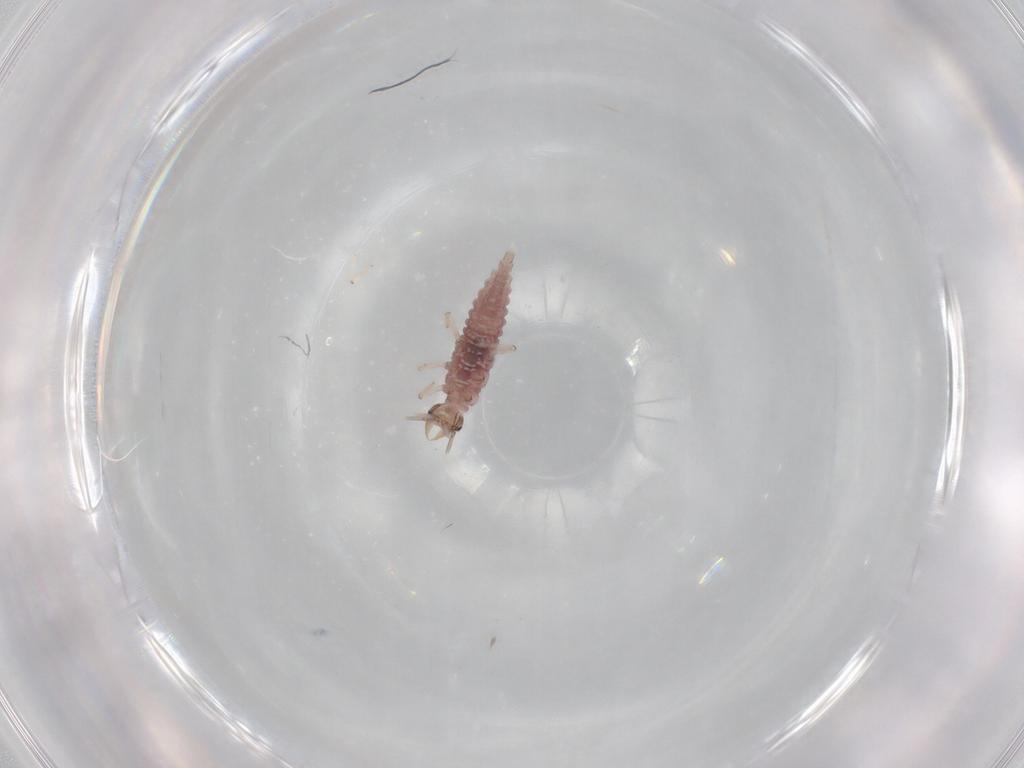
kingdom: Animalia
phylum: Arthropoda
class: Insecta
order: Neuroptera
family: Hemerobiidae
